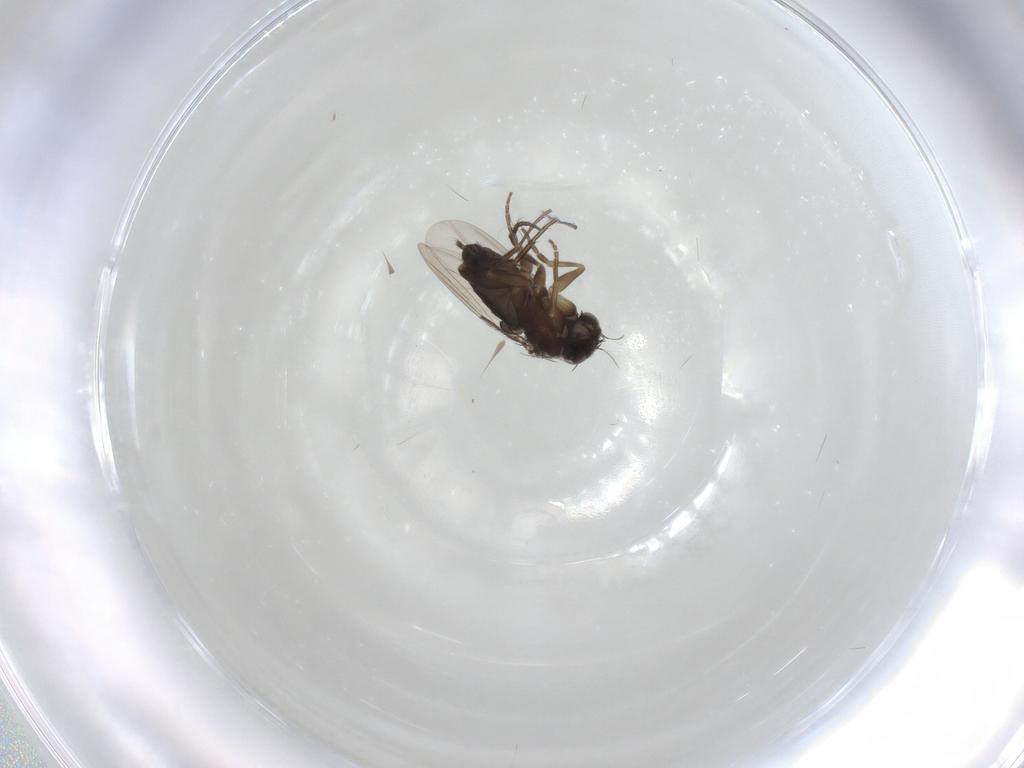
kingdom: Animalia
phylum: Arthropoda
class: Insecta
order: Diptera
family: Phoridae
